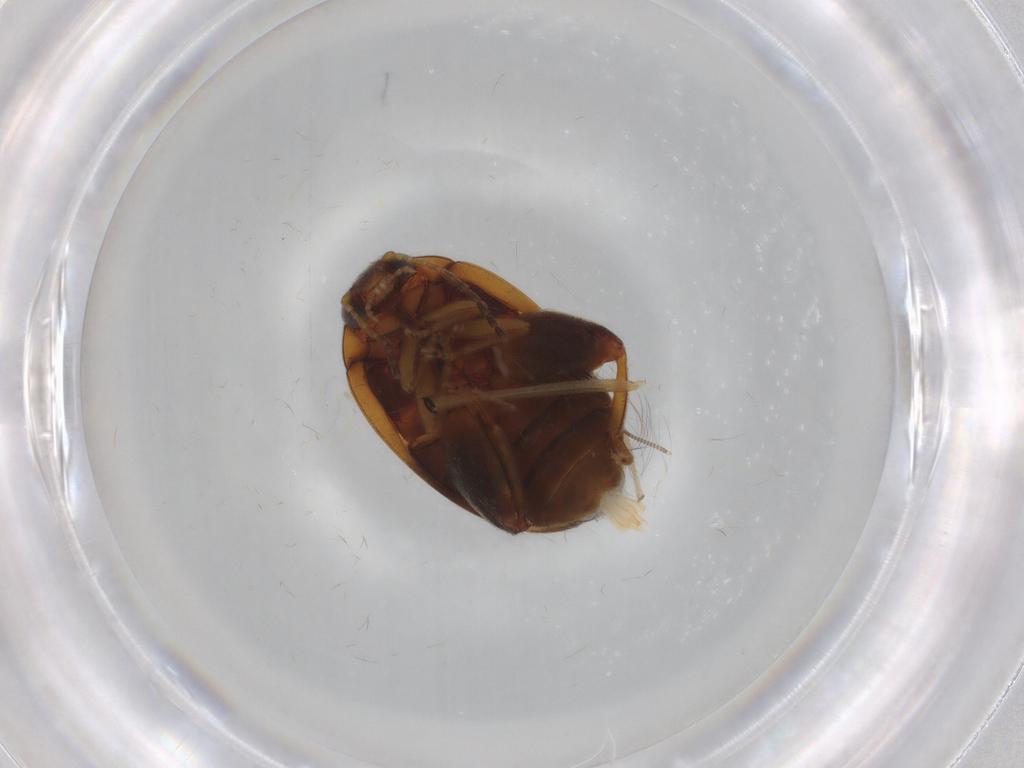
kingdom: Animalia
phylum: Arthropoda
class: Insecta
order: Coleoptera
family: Scirtidae
